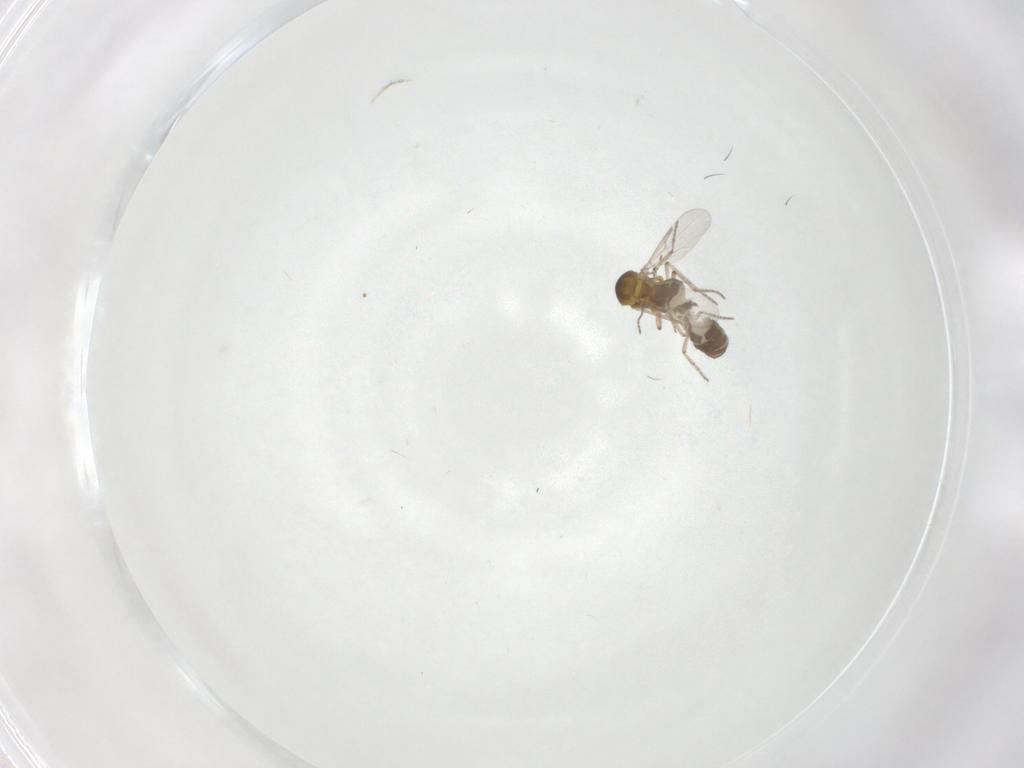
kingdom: Animalia
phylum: Arthropoda
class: Insecta
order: Diptera
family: Ceratopogonidae
